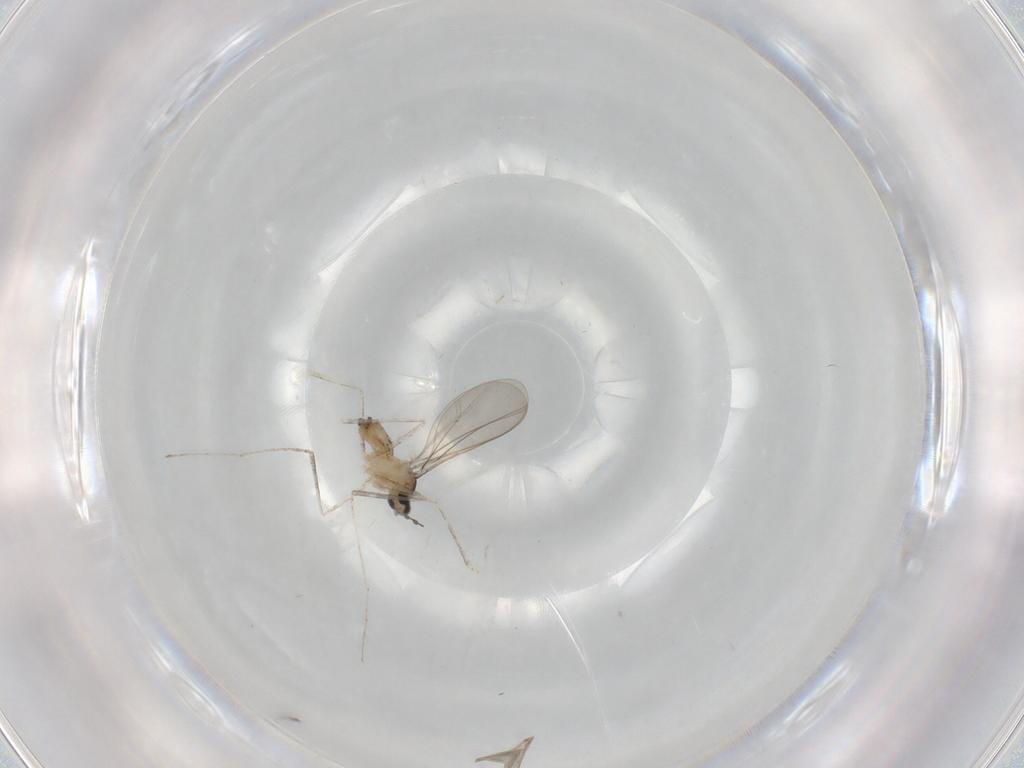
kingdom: Animalia
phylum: Arthropoda
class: Insecta
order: Diptera
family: Cecidomyiidae
